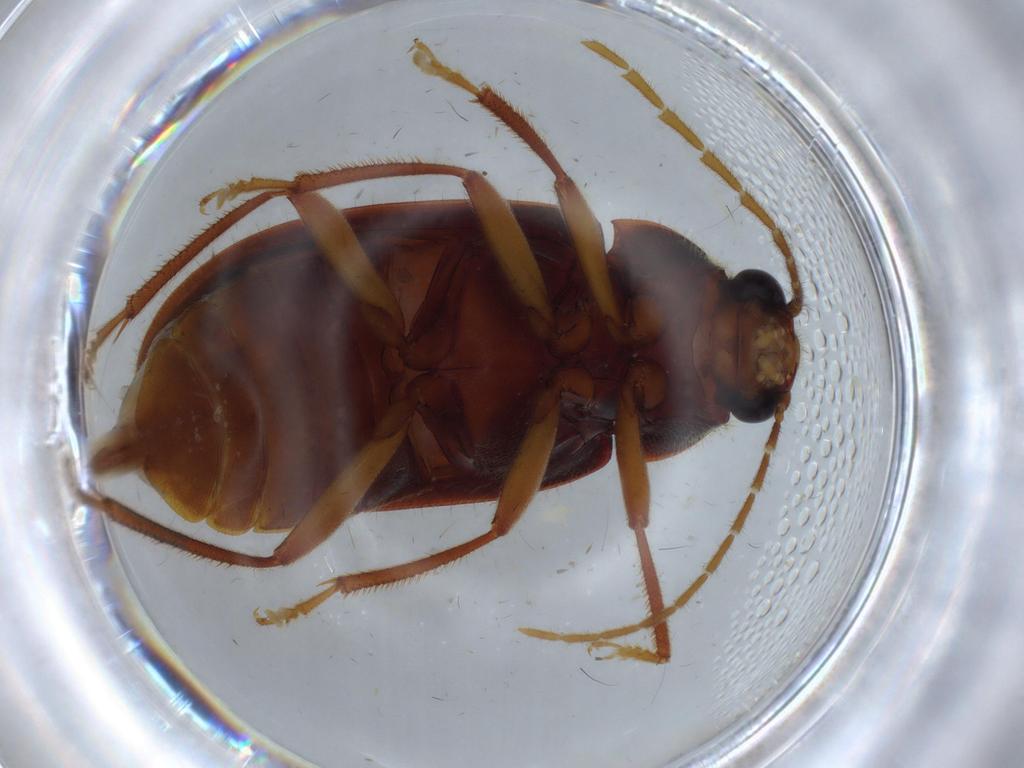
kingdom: Animalia
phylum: Arthropoda
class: Insecta
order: Coleoptera
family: Ptilodactylidae
